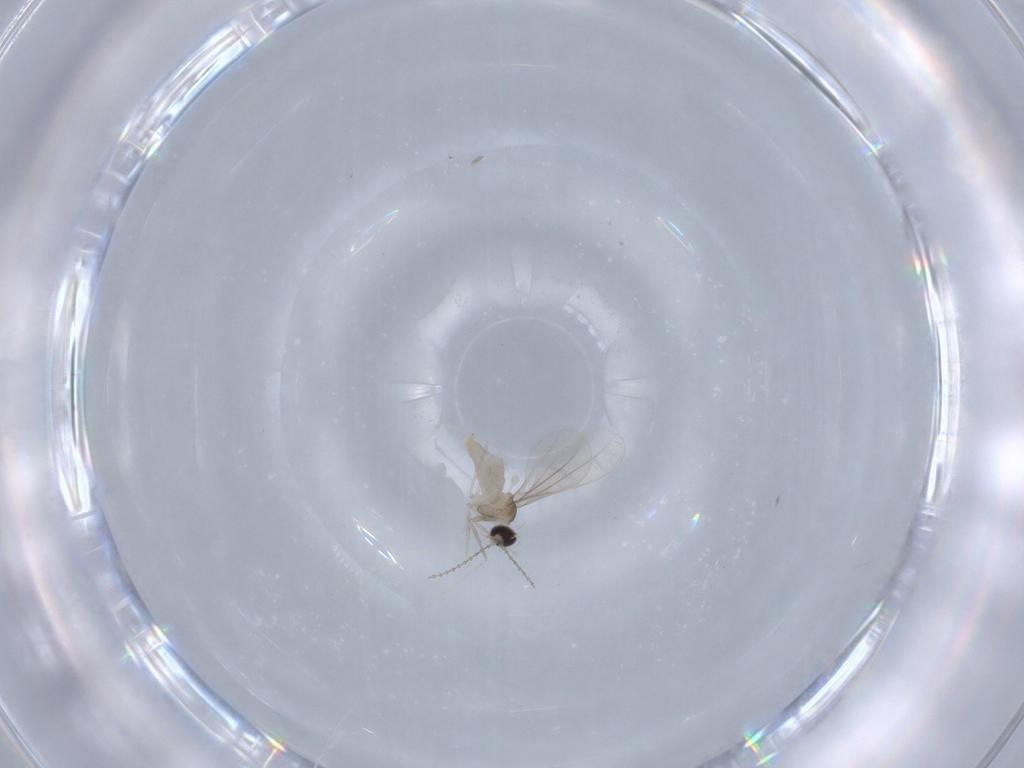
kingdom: Animalia
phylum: Arthropoda
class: Insecta
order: Diptera
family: Cecidomyiidae
